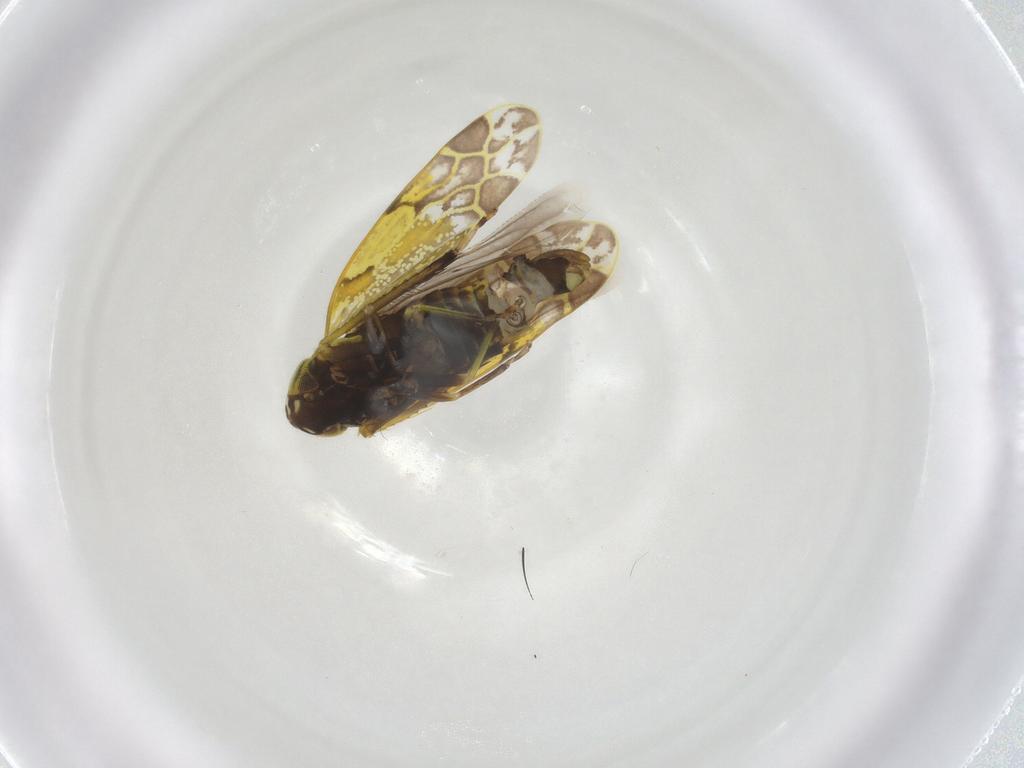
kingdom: Animalia
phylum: Arthropoda
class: Insecta
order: Hemiptera
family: Cicadellidae
